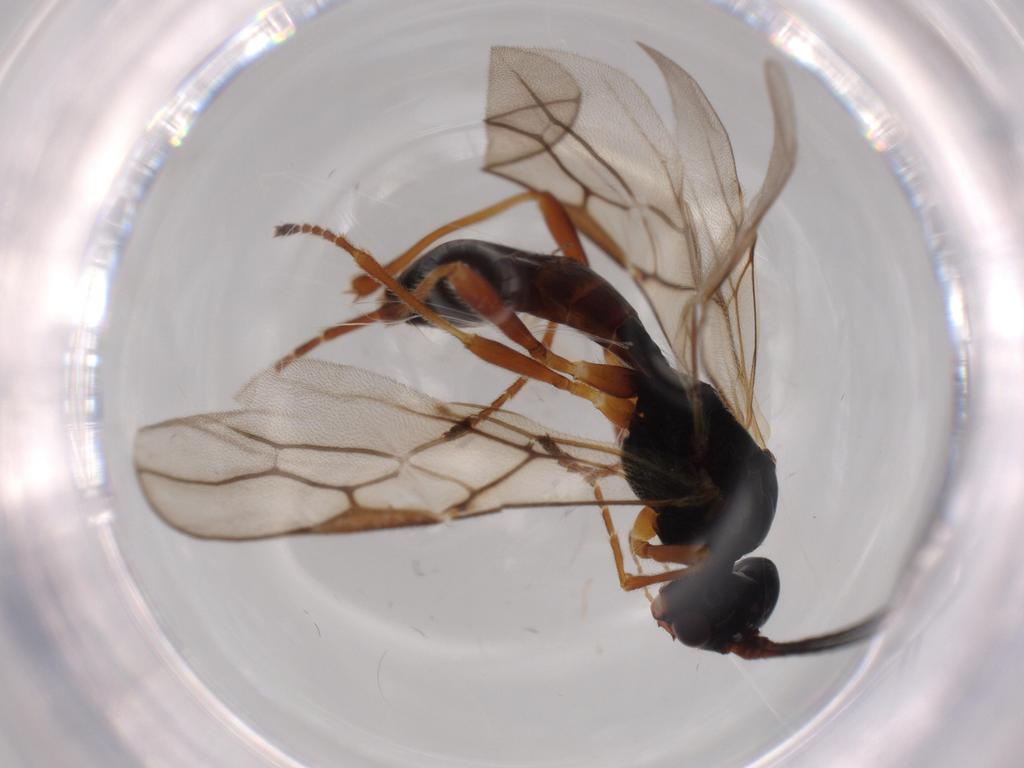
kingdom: Animalia
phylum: Arthropoda
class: Insecta
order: Hymenoptera
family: Braconidae
